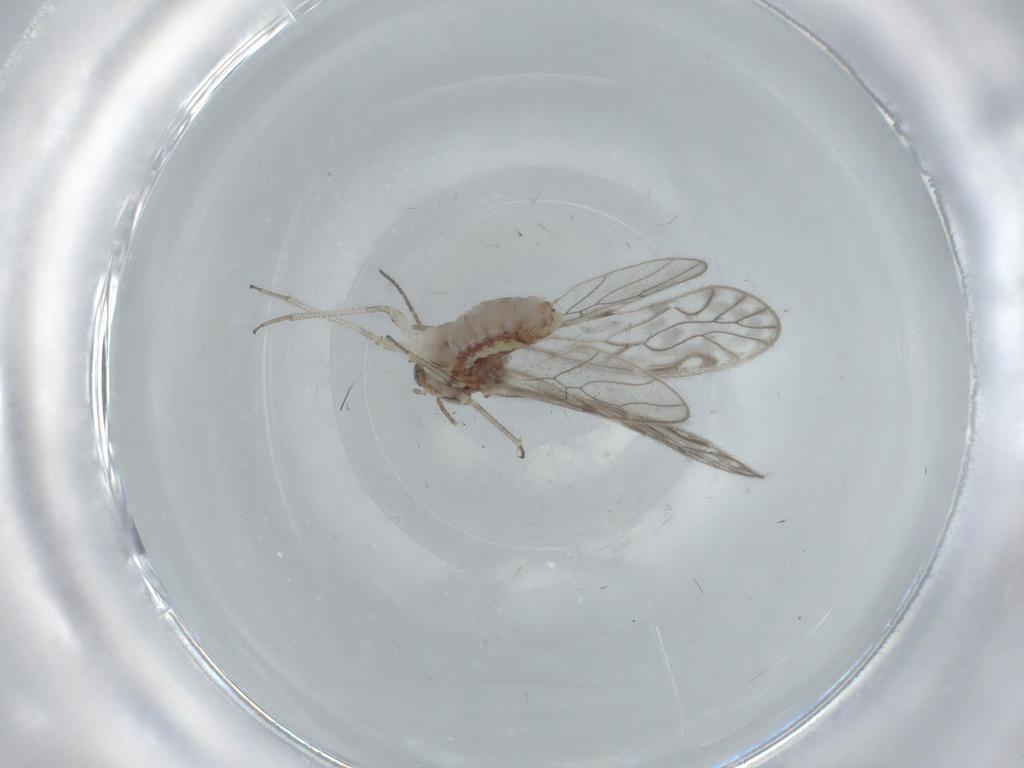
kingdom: Animalia
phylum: Arthropoda
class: Insecta
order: Psocodea
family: Philotarsidae
